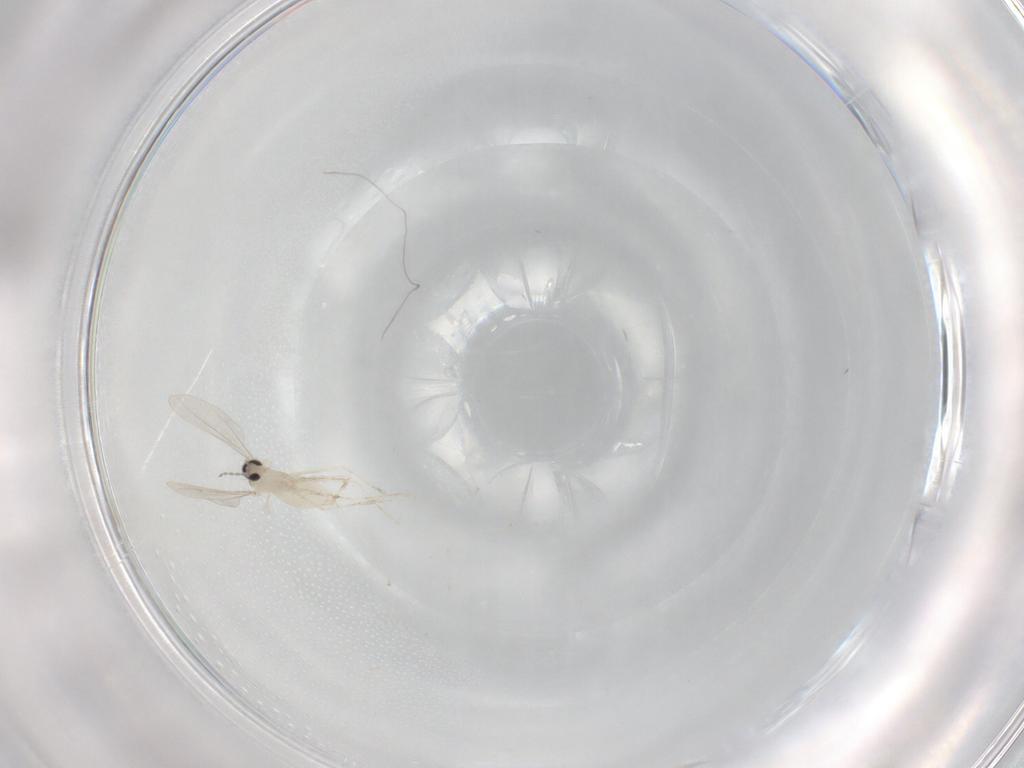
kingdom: Animalia
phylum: Arthropoda
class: Insecta
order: Diptera
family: Cecidomyiidae
